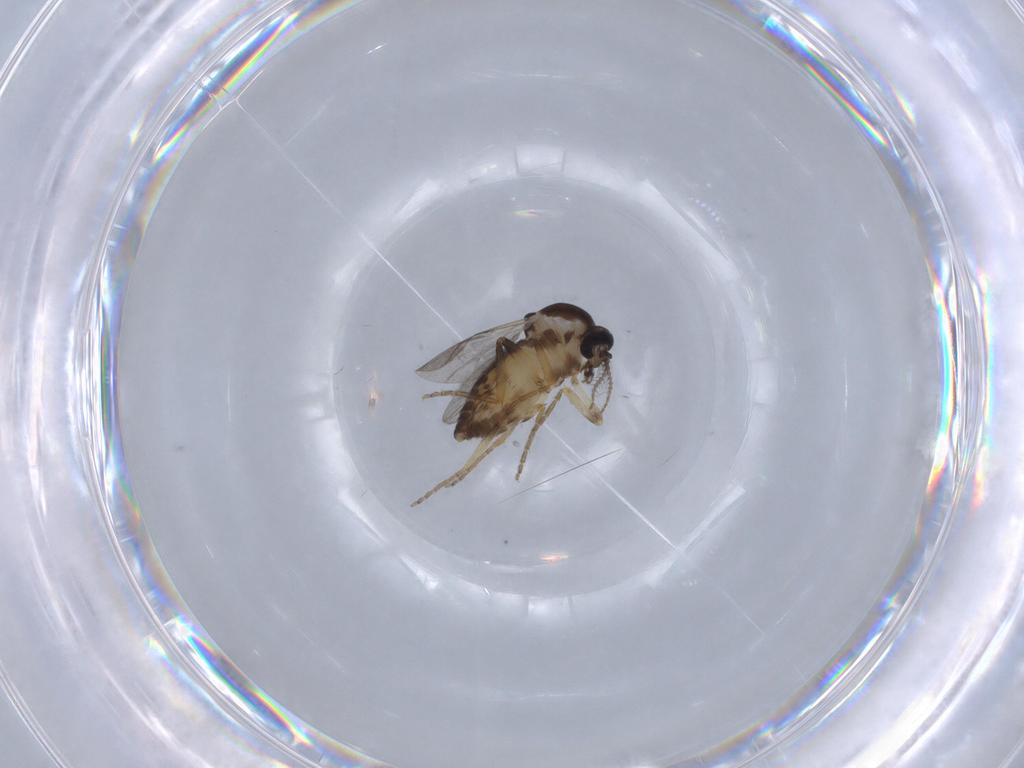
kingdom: Animalia
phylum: Arthropoda
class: Insecta
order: Diptera
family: Ceratopogonidae
